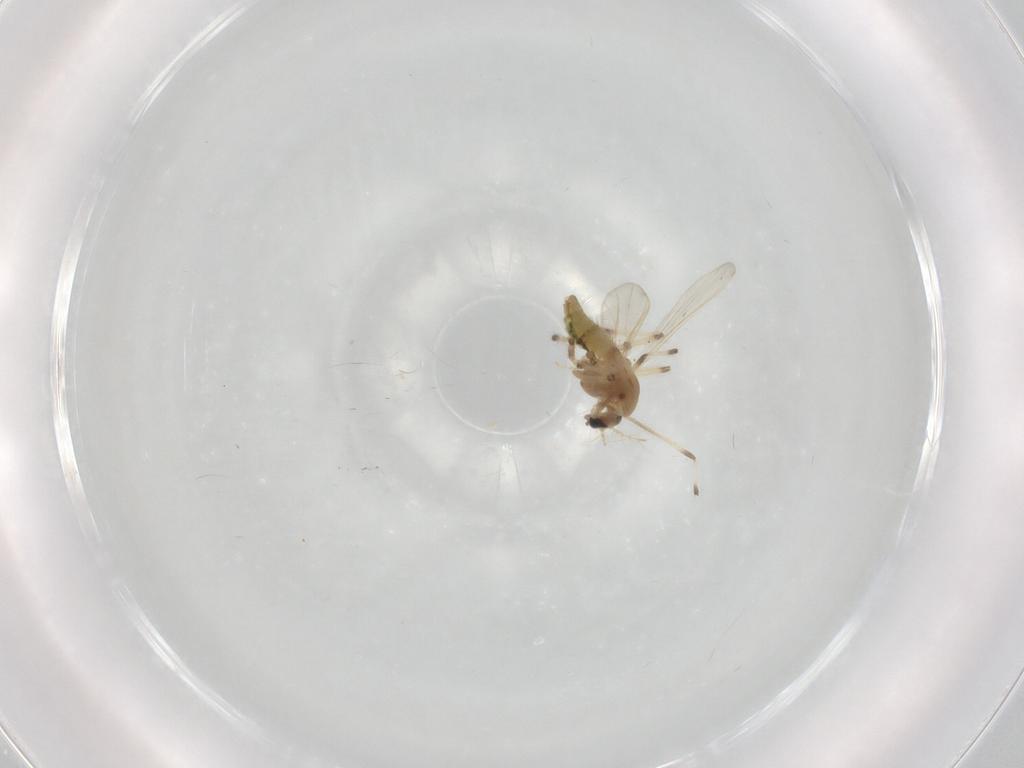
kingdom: Animalia
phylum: Arthropoda
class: Insecta
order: Diptera
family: Chironomidae
